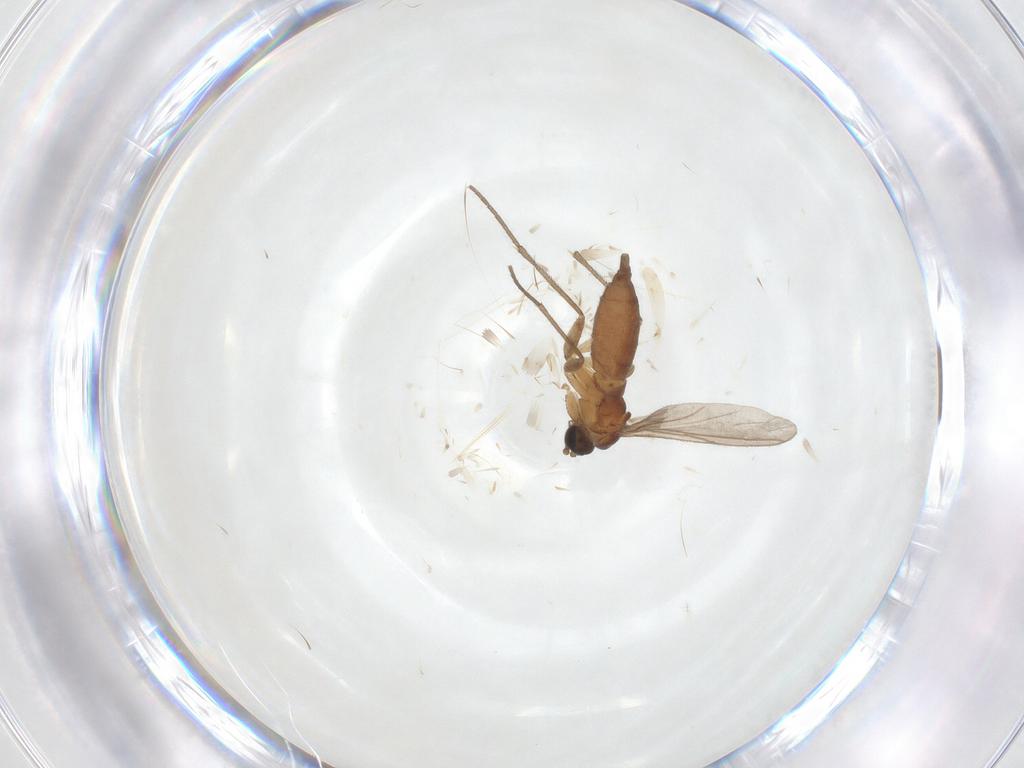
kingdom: Animalia
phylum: Arthropoda
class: Insecta
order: Diptera
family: Sciaridae
